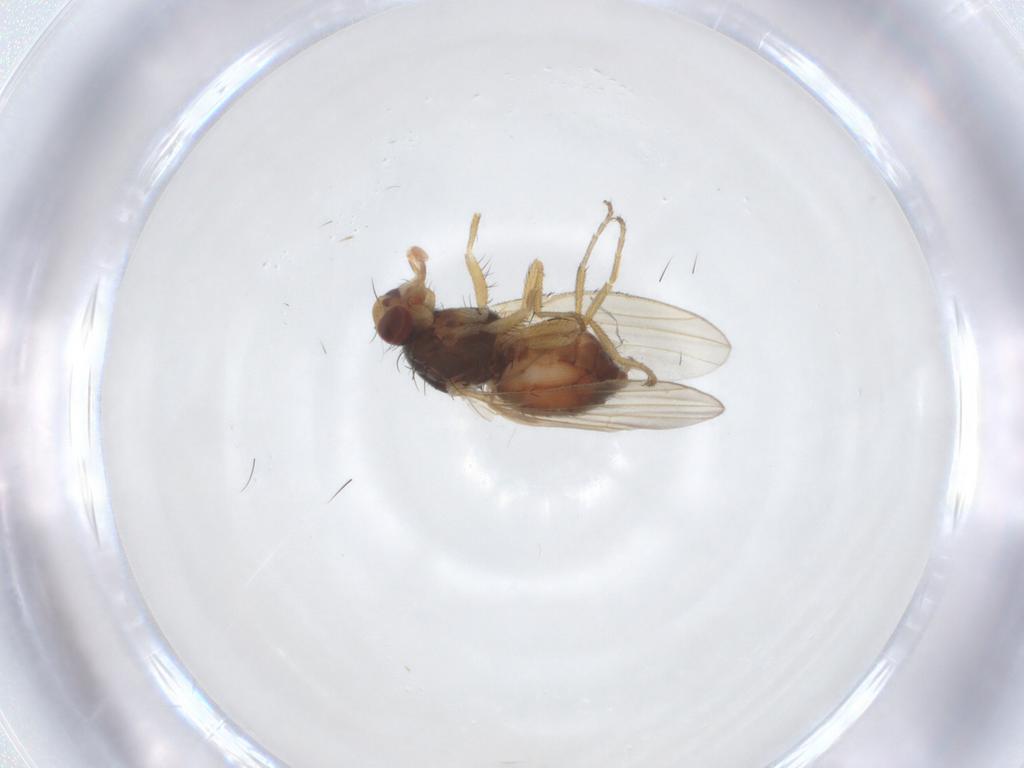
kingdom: Animalia
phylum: Arthropoda
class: Insecta
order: Diptera
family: Heleomyzidae
